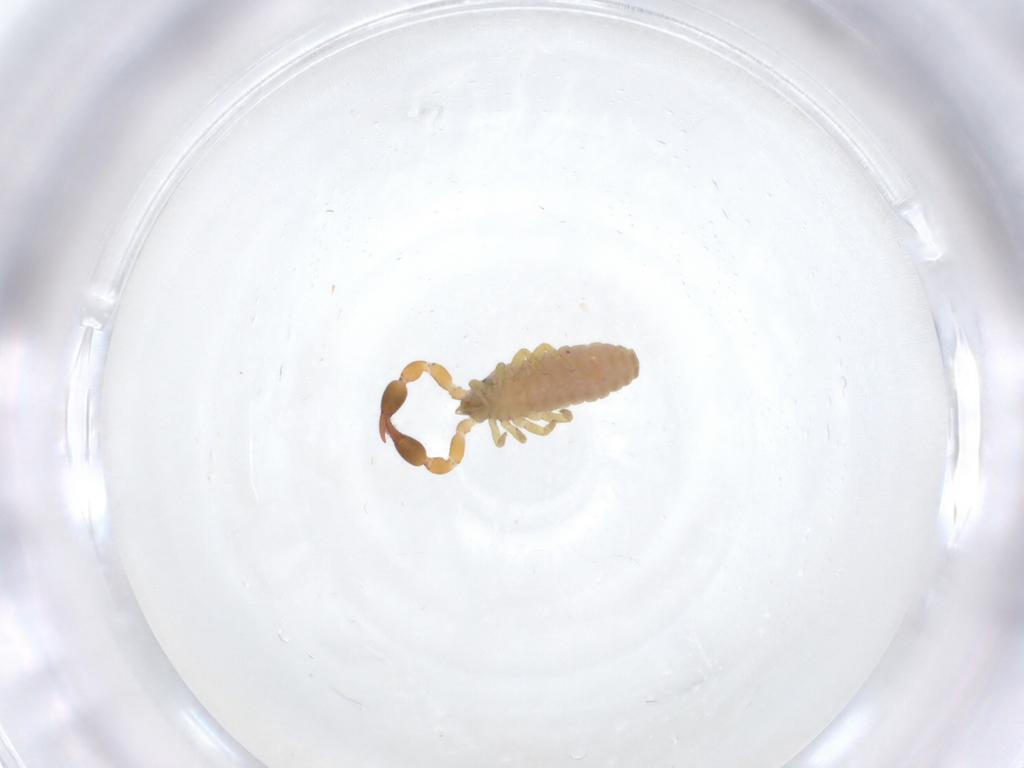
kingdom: Animalia
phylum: Arthropoda
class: Arachnida
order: Pseudoscorpiones
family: Chernetidae
